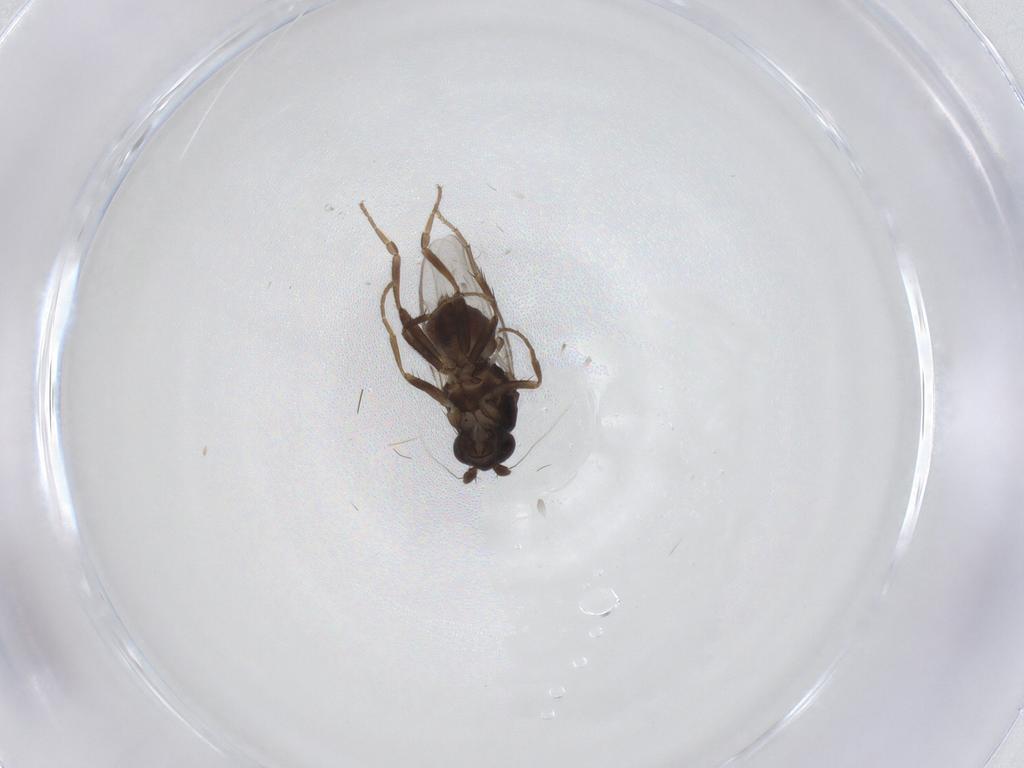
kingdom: Animalia
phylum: Arthropoda
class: Insecta
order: Diptera
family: Sphaeroceridae
